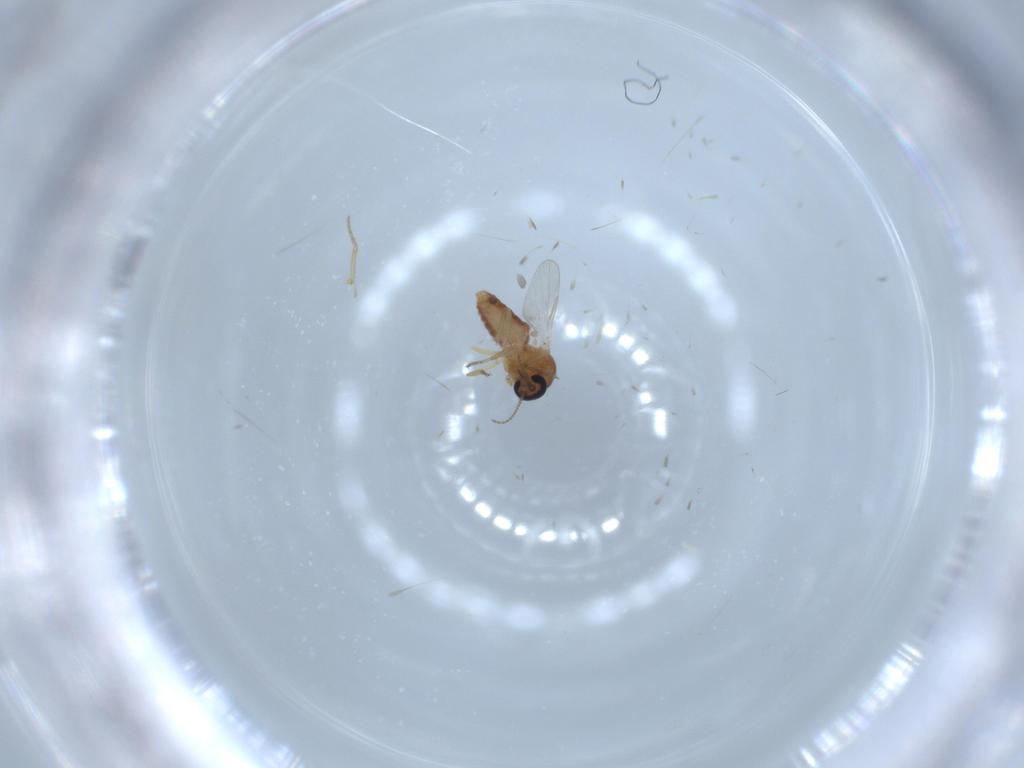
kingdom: Animalia
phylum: Arthropoda
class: Insecta
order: Diptera
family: Ceratopogonidae
